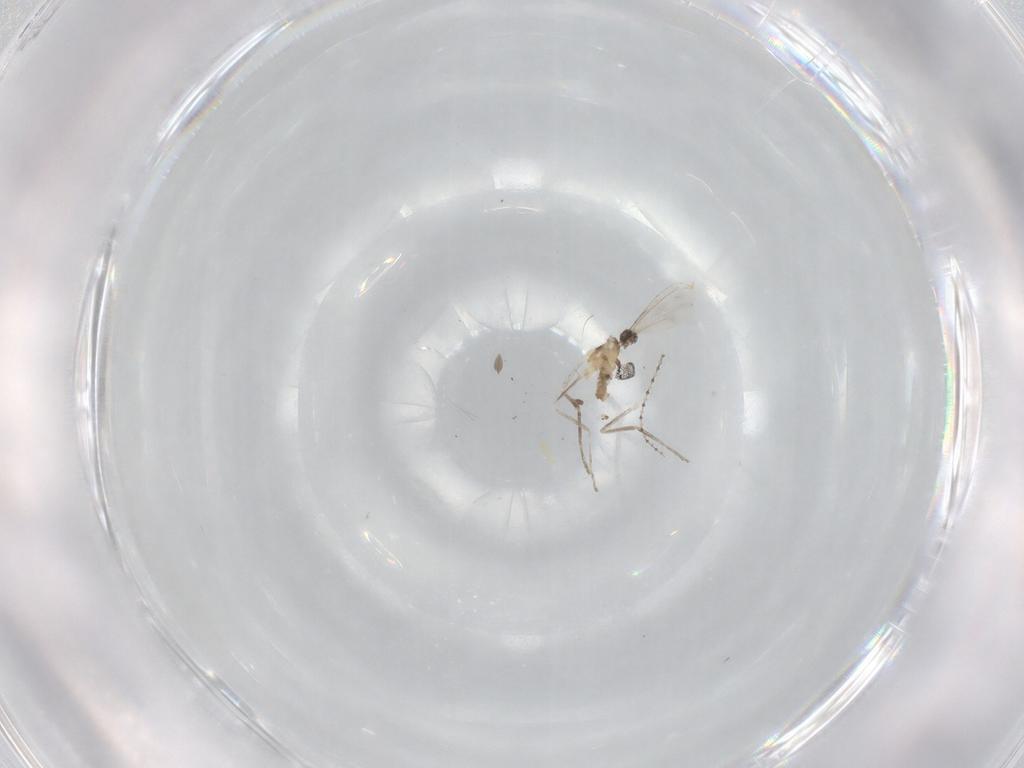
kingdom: Animalia
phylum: Arthropoda
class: Insecta
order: Diptera
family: Cecidomyiidae
